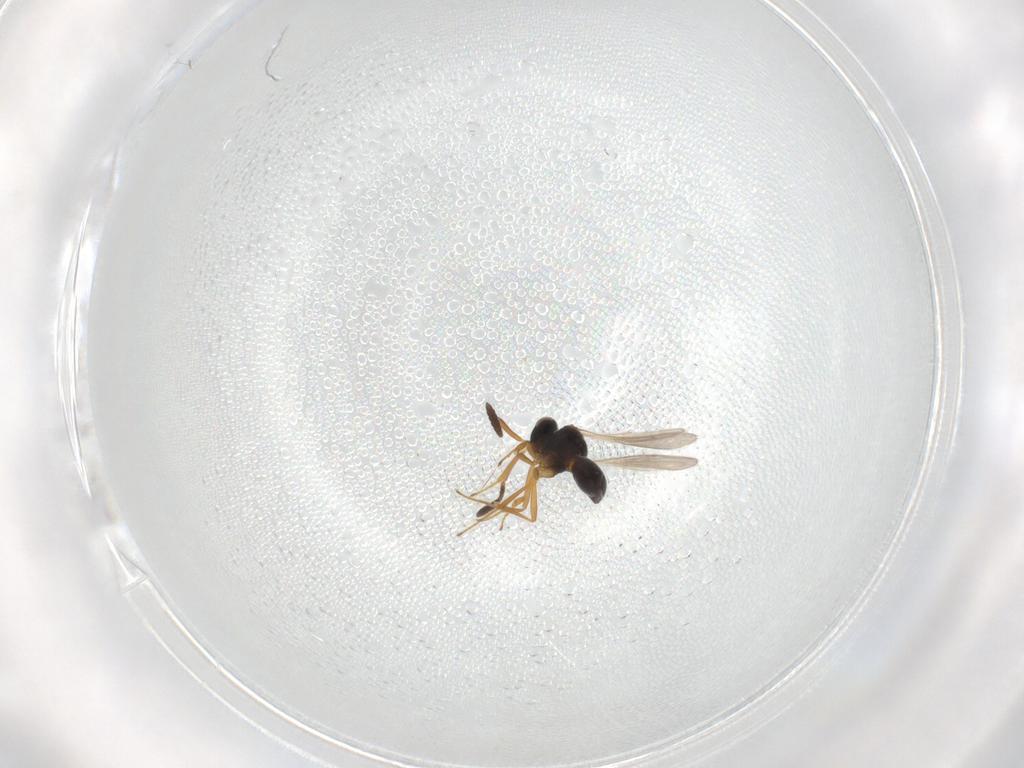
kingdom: Animalia
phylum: Arthropoda
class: Insecta
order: Hymenoptera
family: Scelionidae
